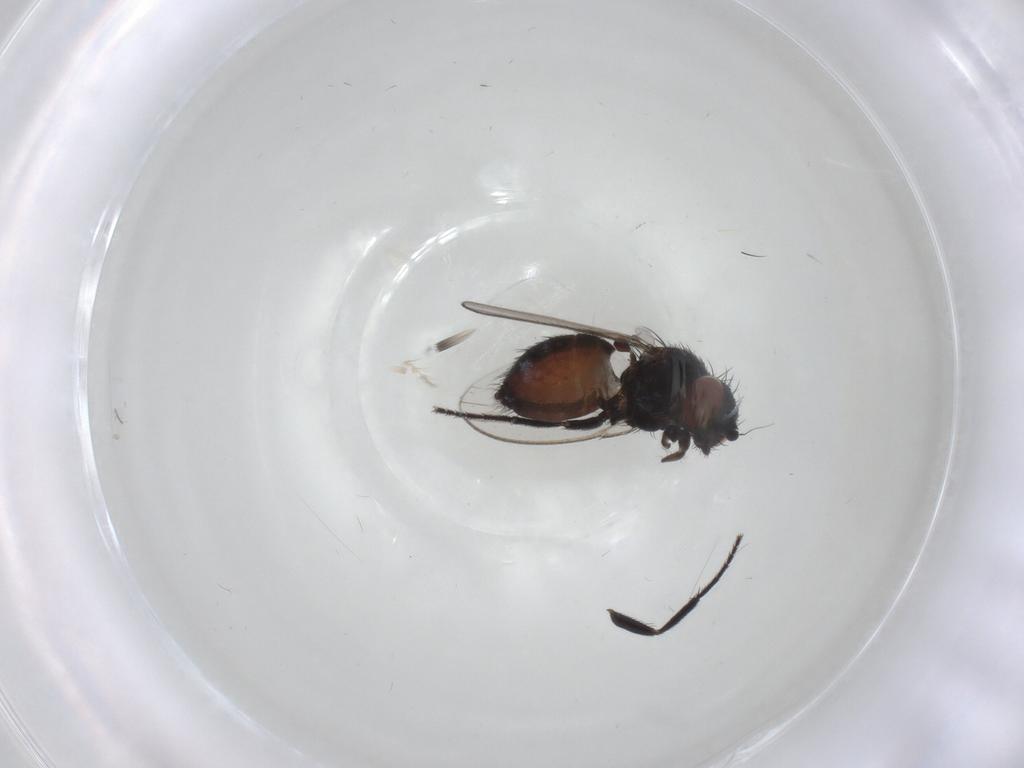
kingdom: Animalia
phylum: Arthropoda
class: Insecta
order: Diptera
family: Milichiidae
